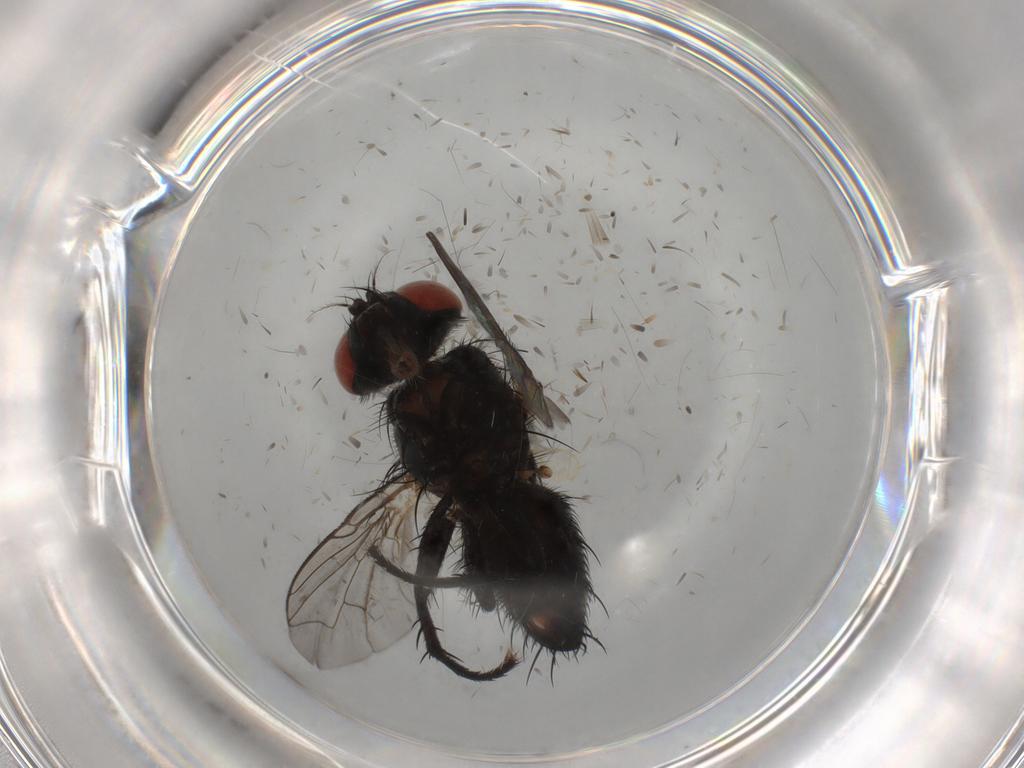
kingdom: Animalia
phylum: Arthropoda
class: Insecta
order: Diptera
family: Sarcophagidae
